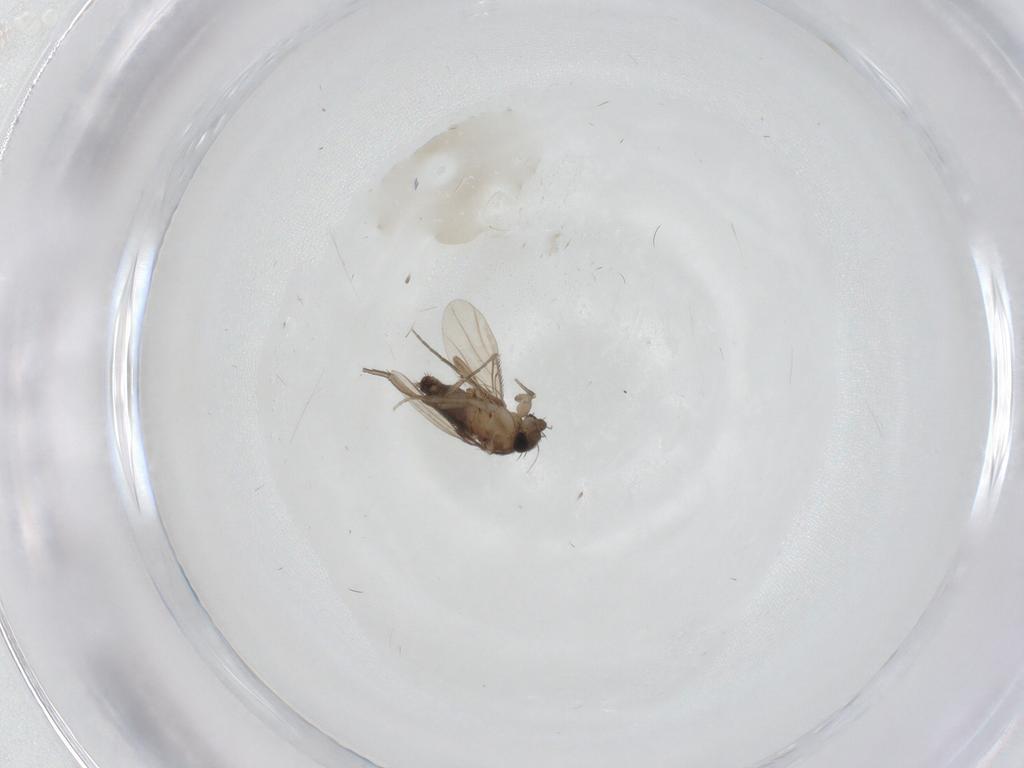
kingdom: Animalia
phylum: Arthropoda
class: Insecta
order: Diptera
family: Phoridae
